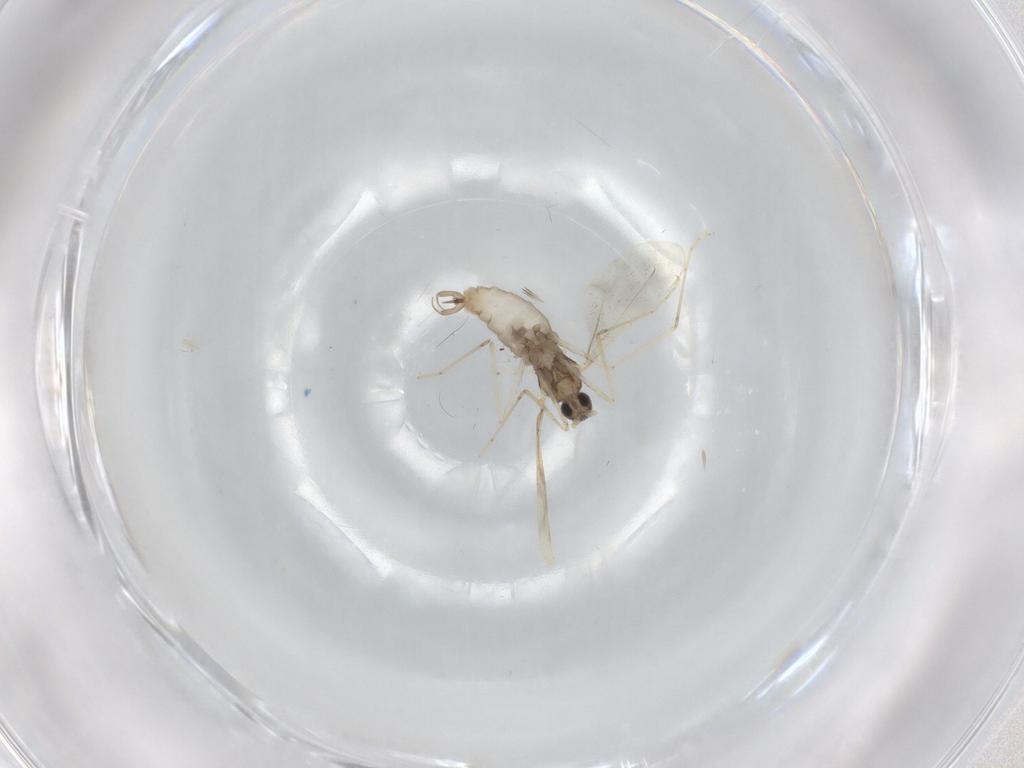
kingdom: Animalia
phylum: Arthropoda
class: Insecta
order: Diptera
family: Cecidomyiidae
